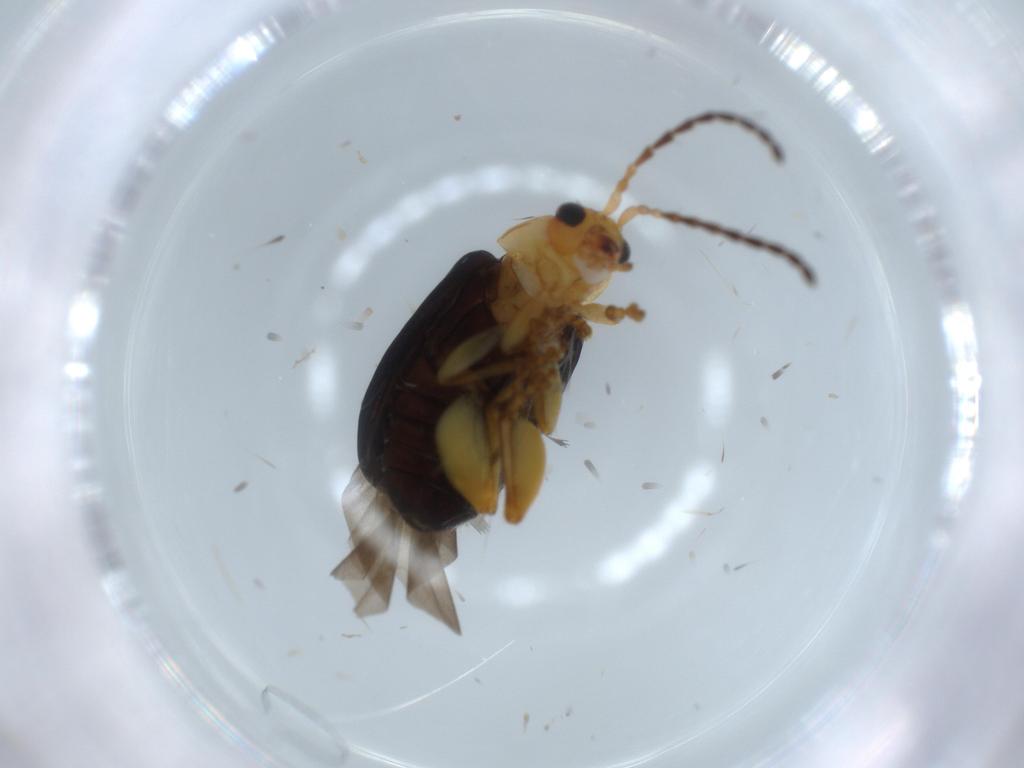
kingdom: Animalia
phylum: Arthropoda
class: Insecta
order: Coleoptera
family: Chrysomelidae
